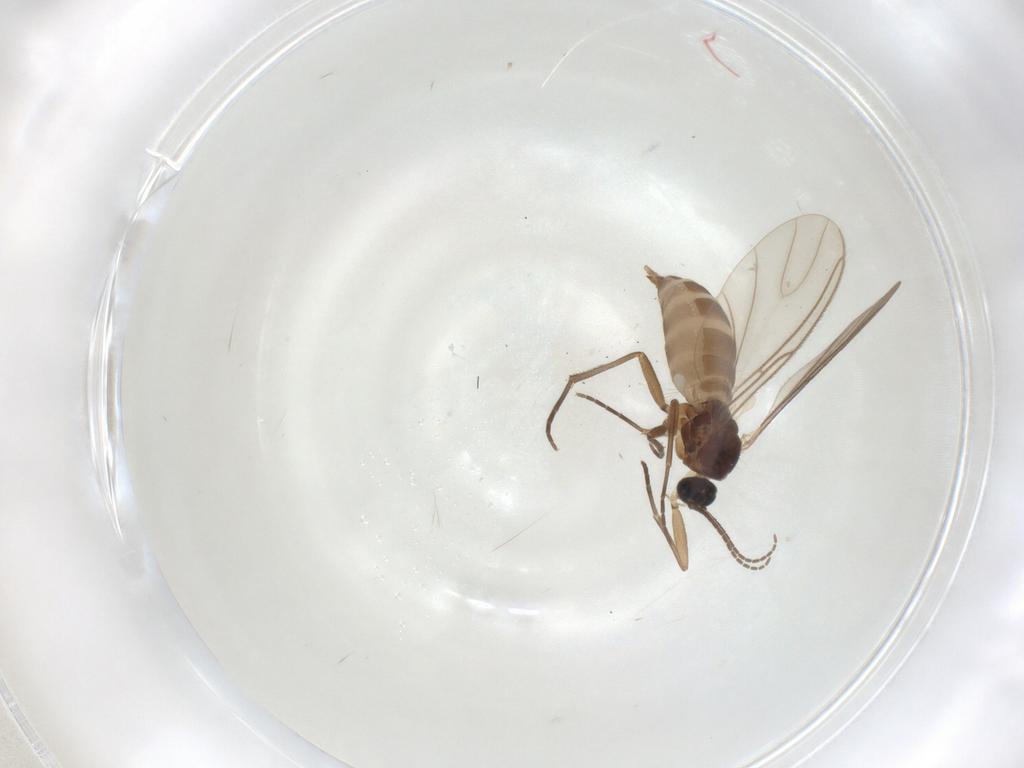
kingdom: Animalia
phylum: Arthropoda
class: Insecta
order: Diptera
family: Sciaridae
